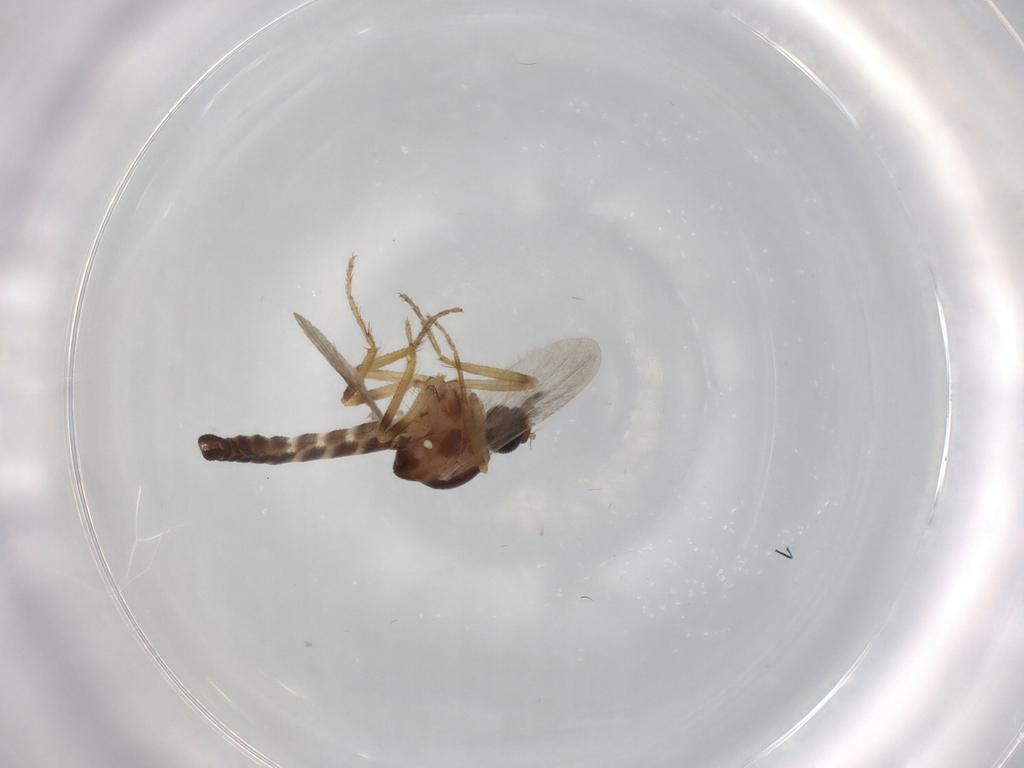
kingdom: Animalia
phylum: Arthropoda
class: Insecta
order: Diptera
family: Ceratopogonidae
